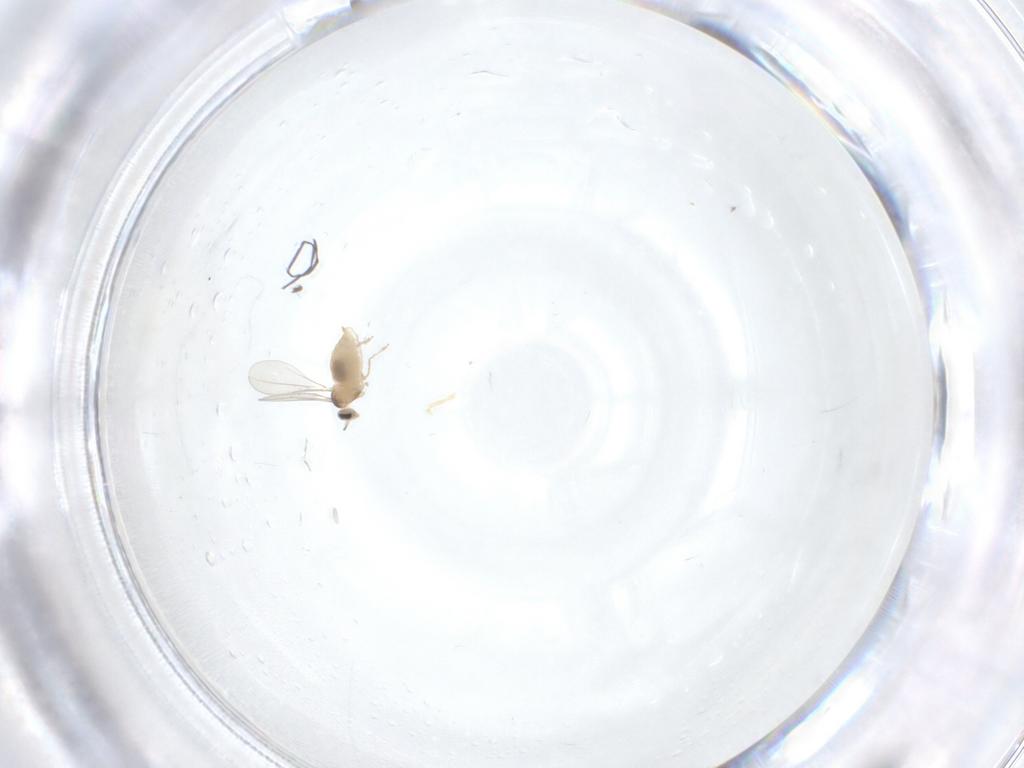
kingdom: Animalia
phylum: Arthropoda
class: Insecta
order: Diptera
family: Cecidomyiidae
